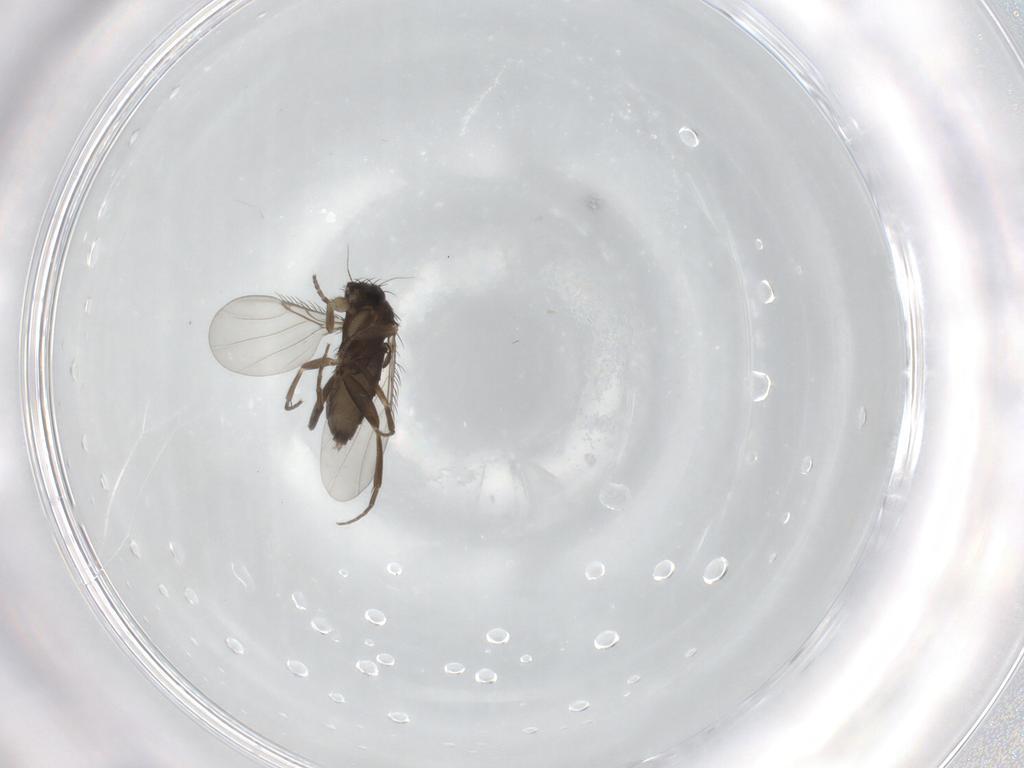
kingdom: Animalia
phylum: Arthropoda
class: Insecta
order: Diptera
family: Phoridae
